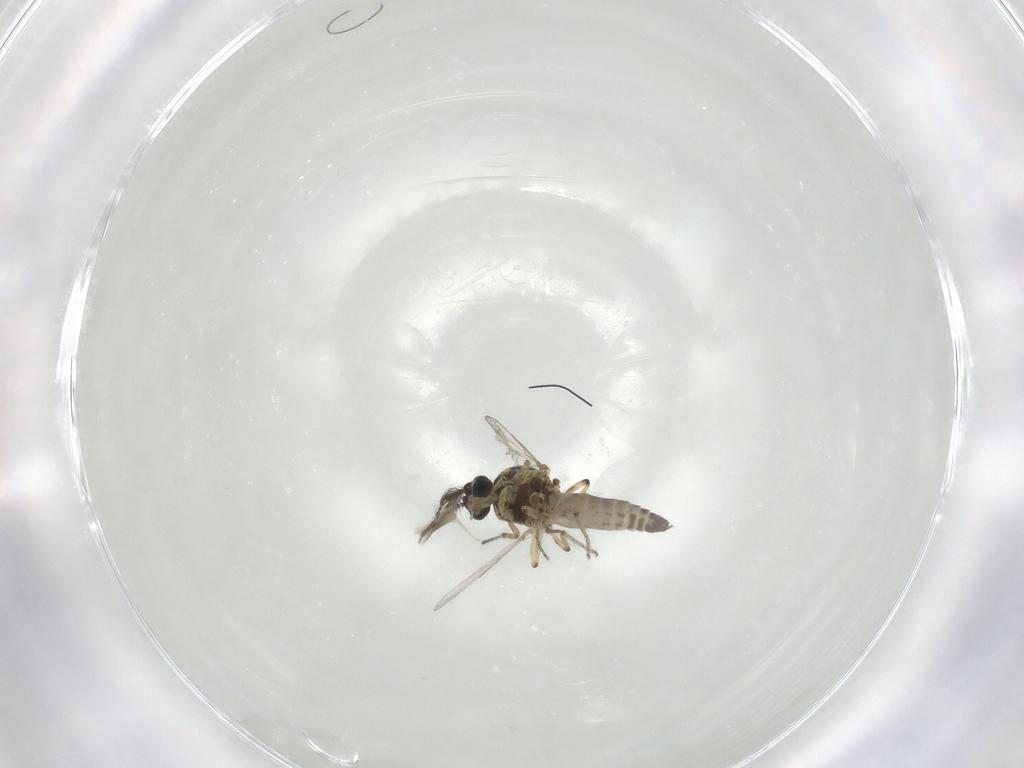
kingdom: Animalia
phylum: Arthropoda
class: Insecta
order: Diptera
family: Tachinidae
